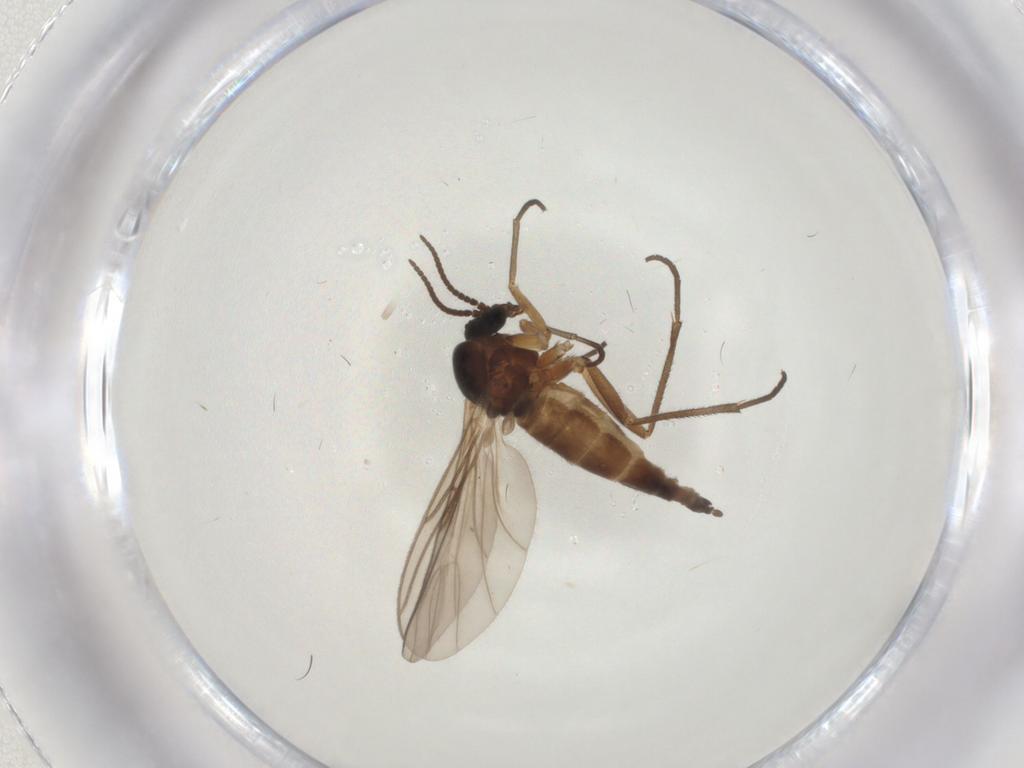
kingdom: Animalia
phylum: Arthropoda
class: Insecta
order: Diptera
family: Sciaridae
